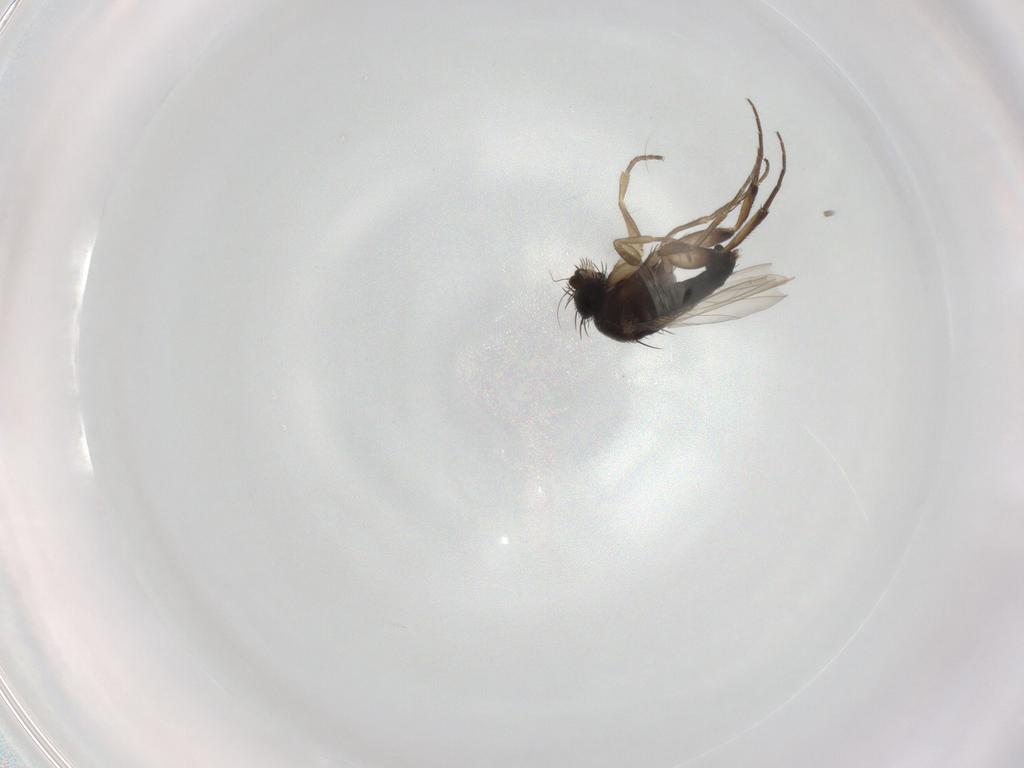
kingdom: Animalia
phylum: Arthropoda
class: Insecta
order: Diptera
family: Phoridae
